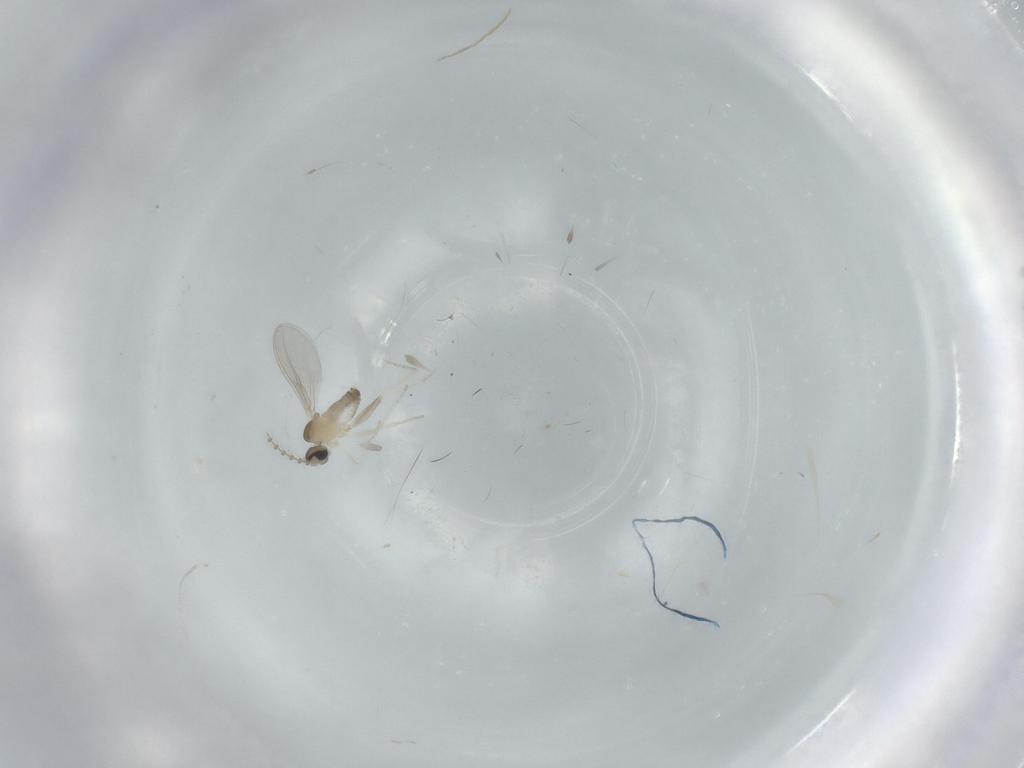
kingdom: Animalia
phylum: Arthropoda
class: Insecta
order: Diptera
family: Cecidomyiidae
